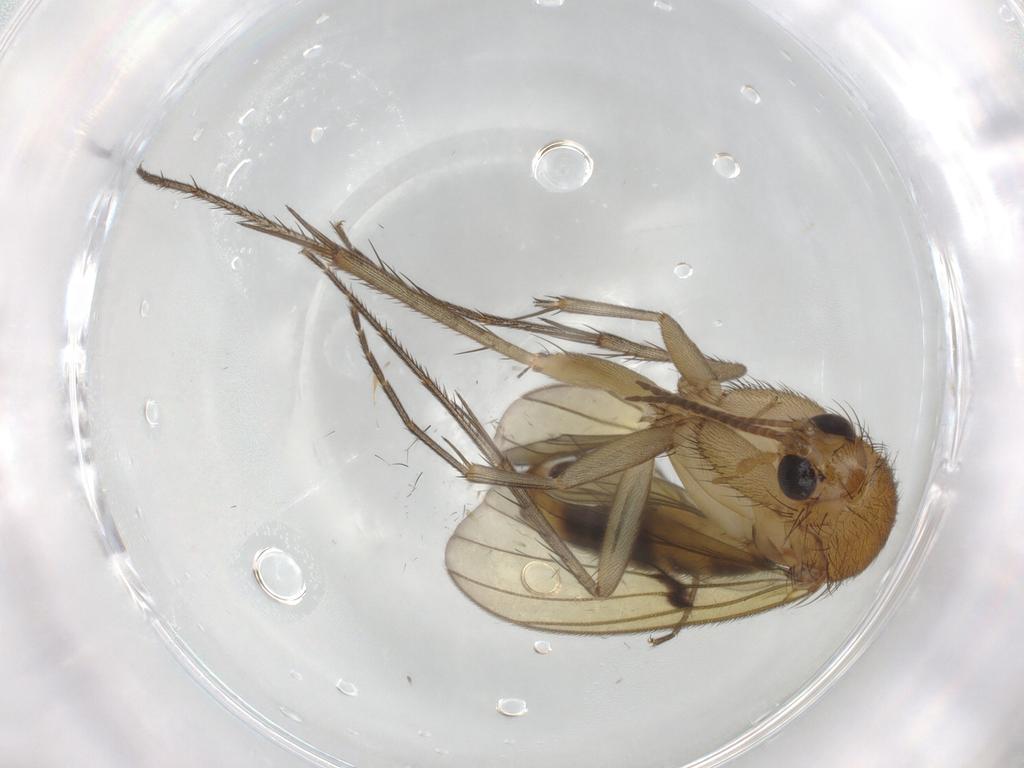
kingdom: Animalia
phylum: Arthropoda
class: Insecta
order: Diptera
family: Mycetophilidae
